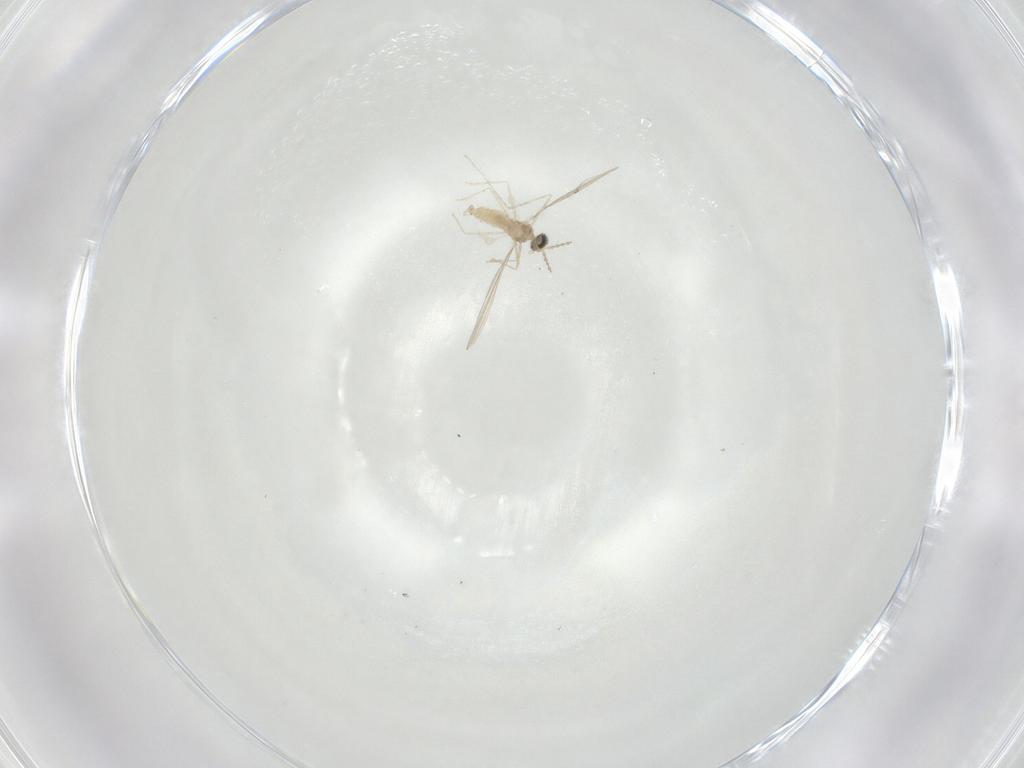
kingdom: Animalia
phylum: Arthropoda
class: Insecta
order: Diptera
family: Cecidomyiidae
